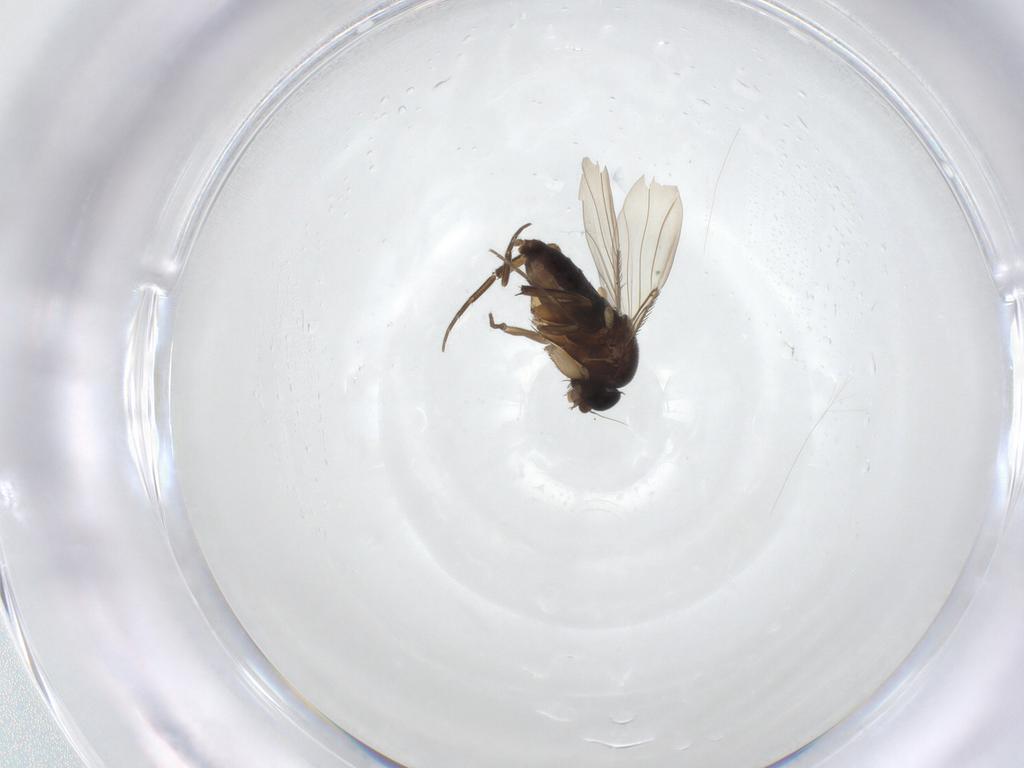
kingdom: Animalia
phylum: Arthropoda
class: Insecta
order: Diptera
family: Phoridae
